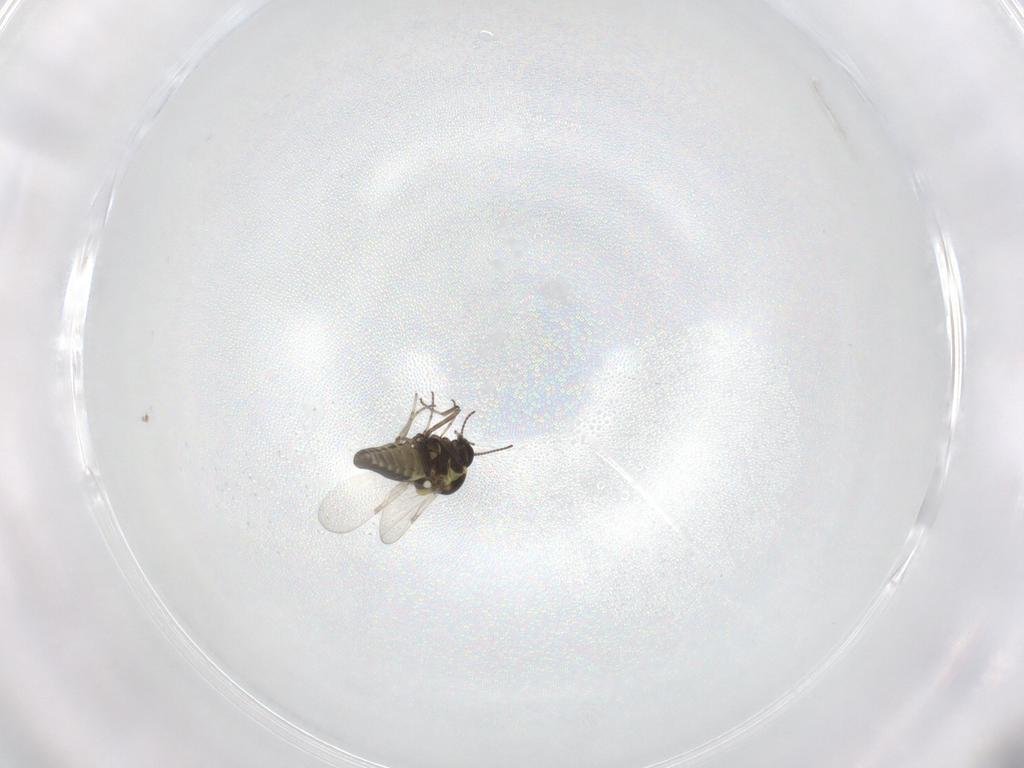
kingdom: Animalia
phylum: Arthropoda
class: Insecta
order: Diptera
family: Ceratopogonidae
